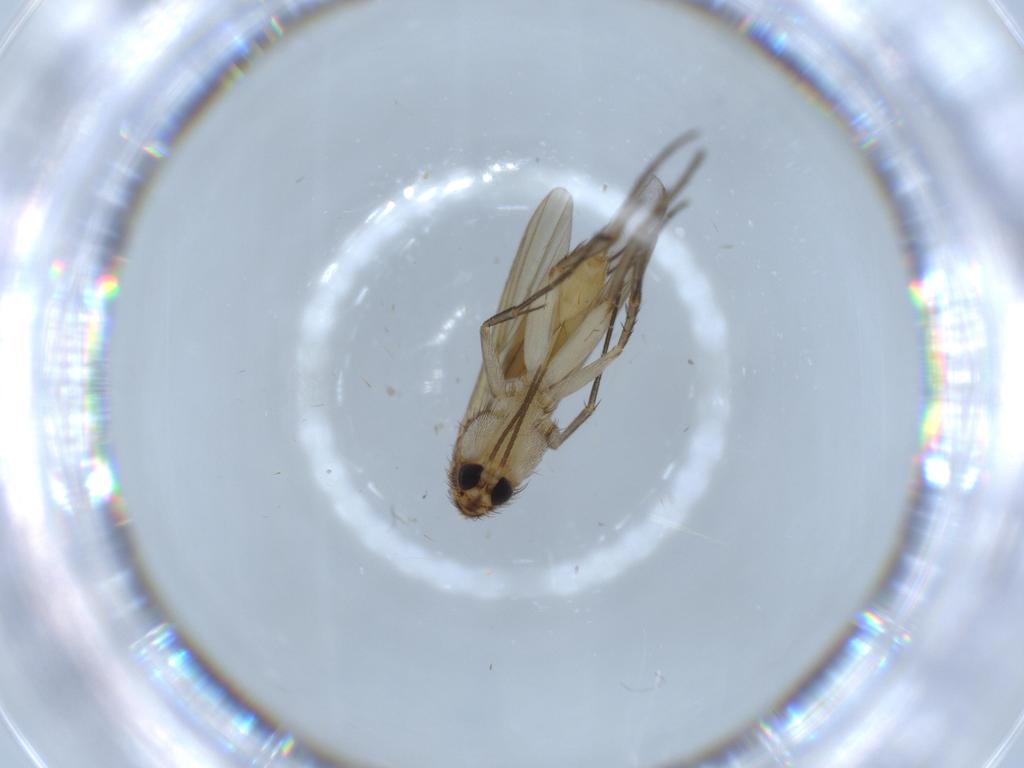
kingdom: Animalia
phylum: Arthropoda
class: Insecta
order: Diptera
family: Mycetophilidae
